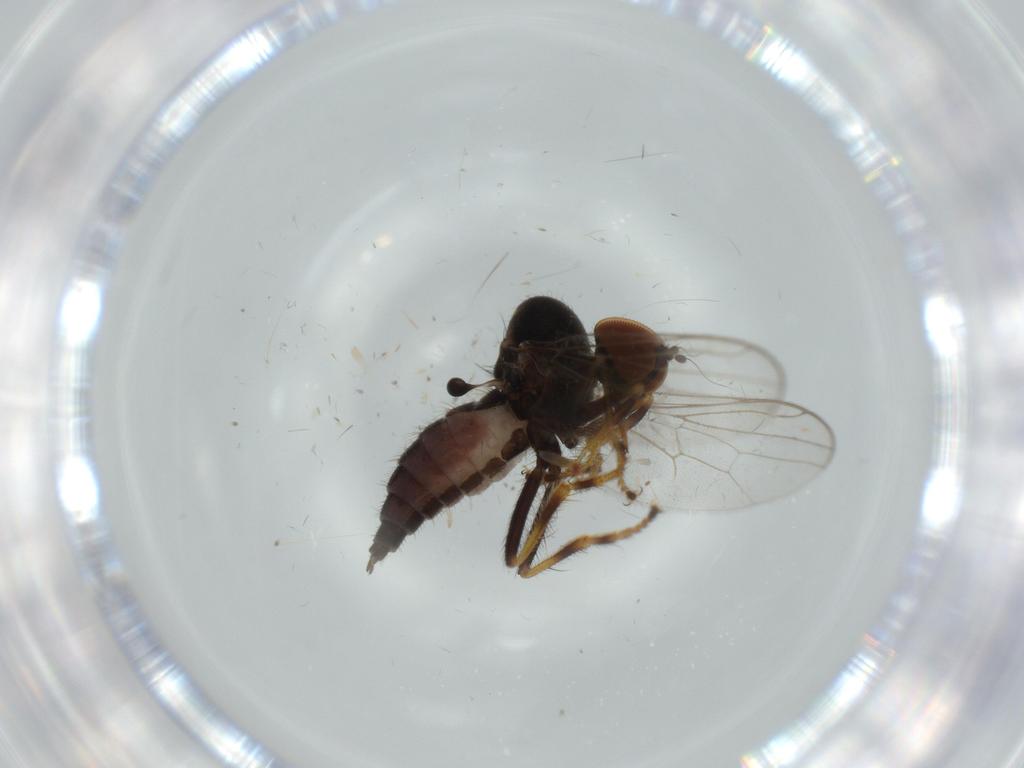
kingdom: Animalia
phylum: Arthropoda
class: Insecta
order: Diptera
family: Hybotidae
